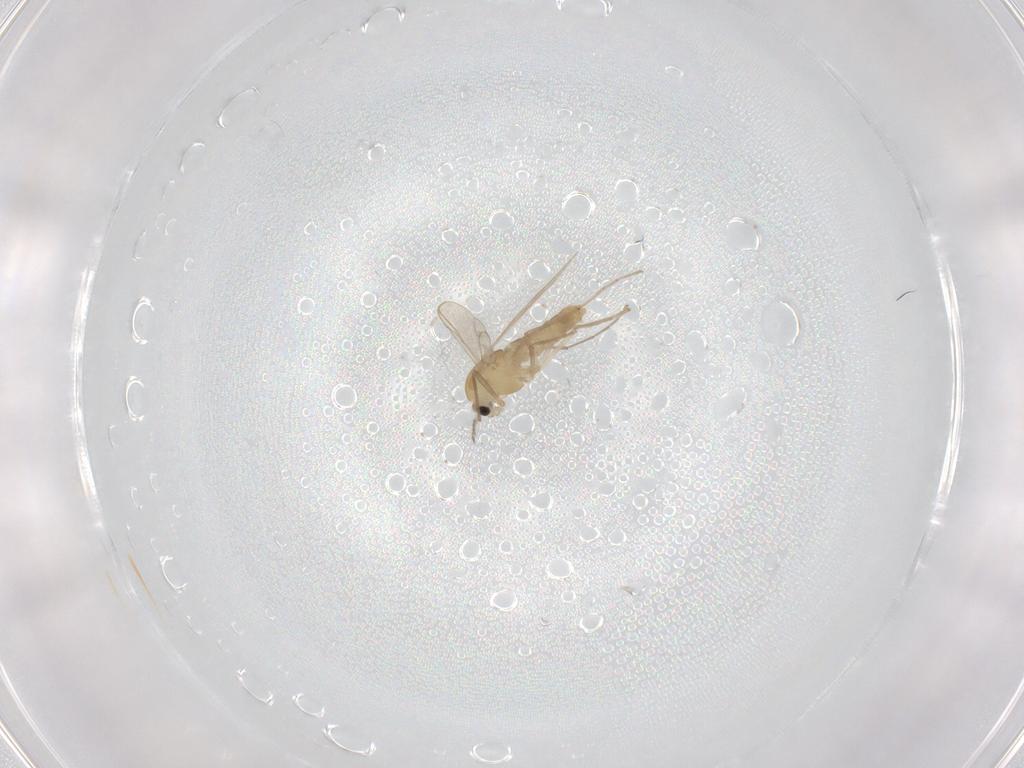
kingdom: Animalia
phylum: Arthropoda
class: Insecta
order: Diptera
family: Chironomidae
